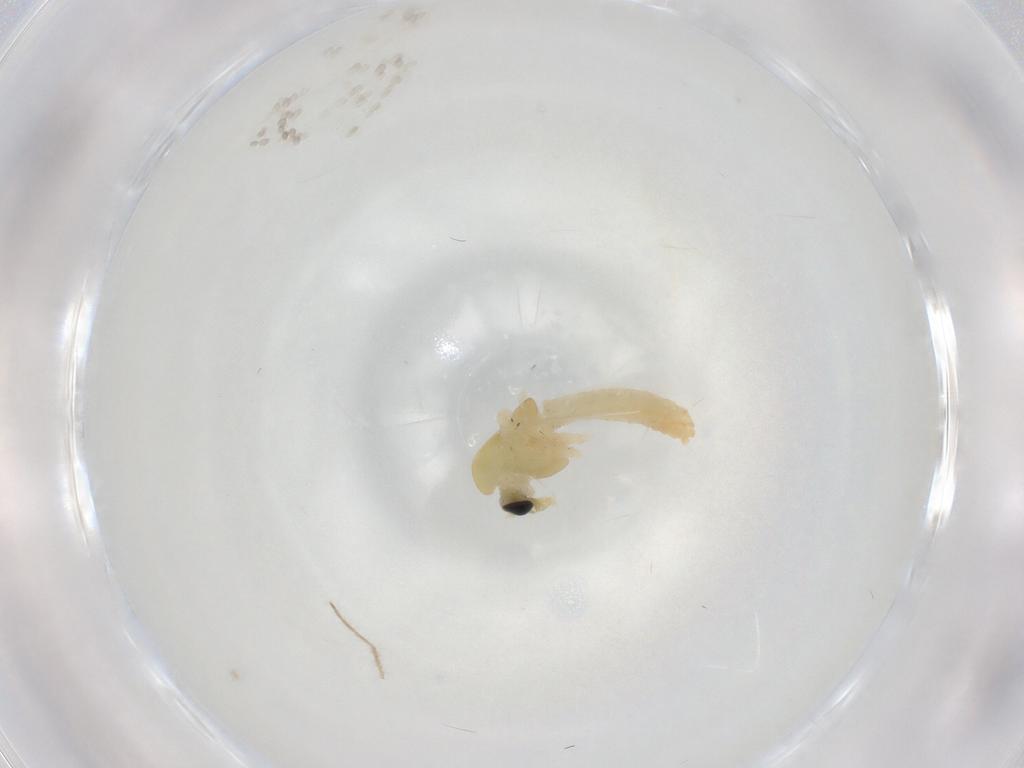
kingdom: Animalia
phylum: Arthropoda
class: Insecta
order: Diptera
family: Chironomidae
